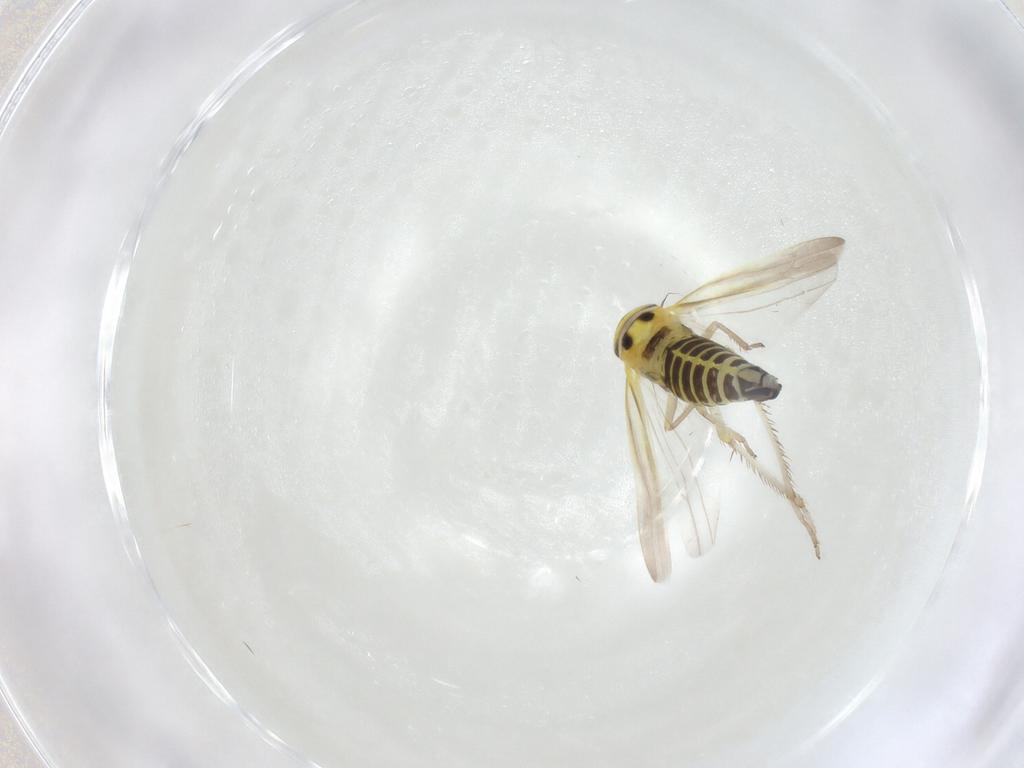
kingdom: Animalia
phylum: Arthropoda
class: Insecta
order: Hemiptera
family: Cicadellidae
